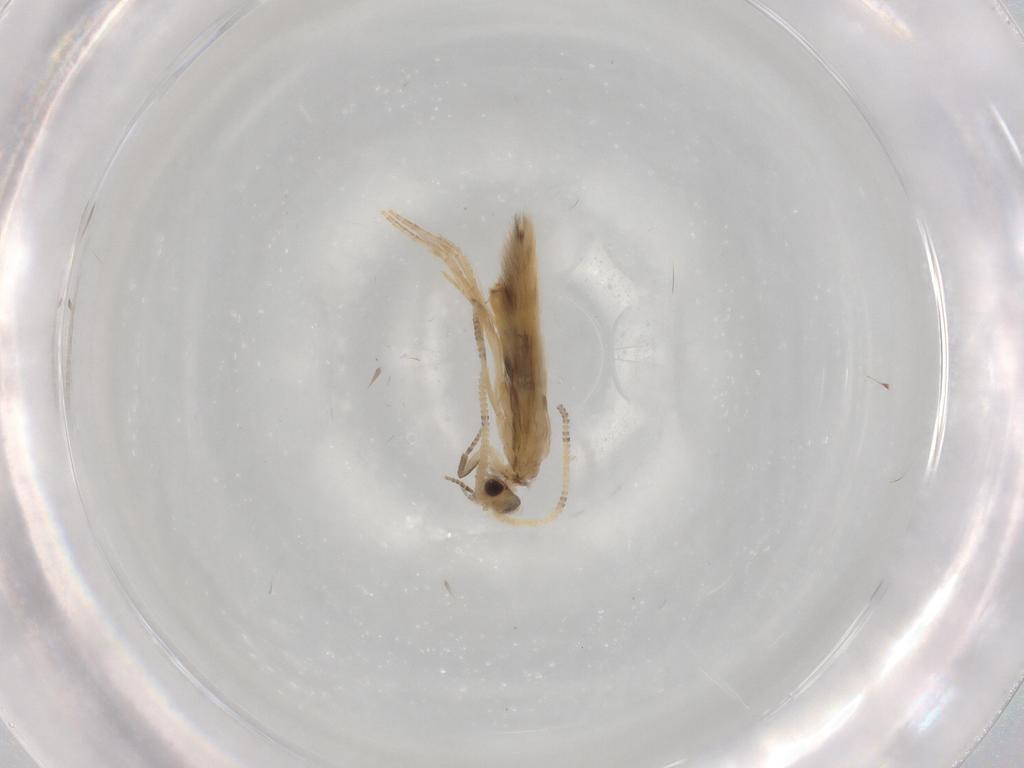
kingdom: Animalia
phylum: Arthropoda
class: Insecta
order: Trichoptera
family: Hydroptilidae
